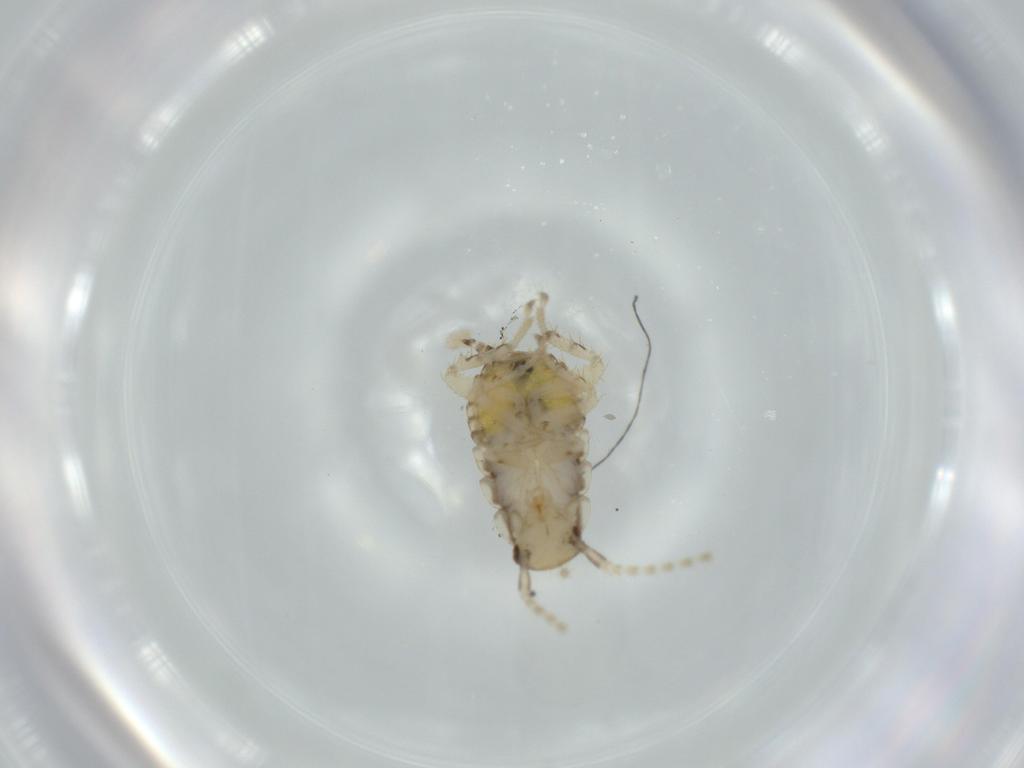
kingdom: Animalia
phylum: Arthropoda
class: Insecta
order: Blattodea
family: Ectobiidae
